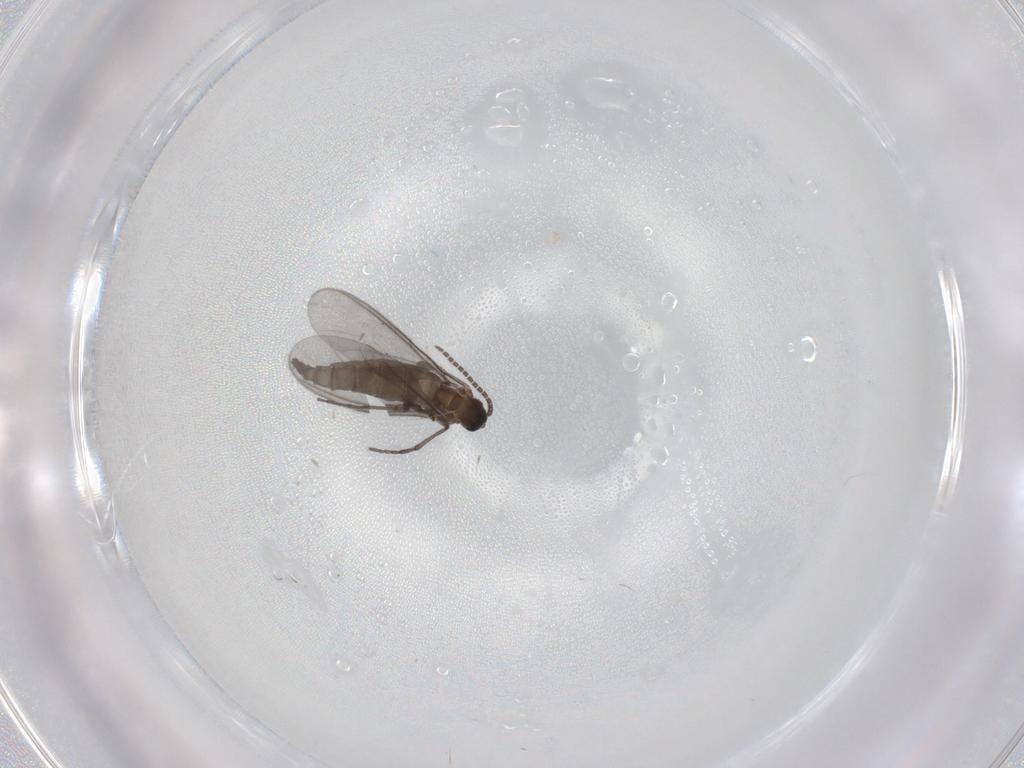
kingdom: Animalia
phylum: Arthropoda
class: Insecta
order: Diptera
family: Sciaridae
